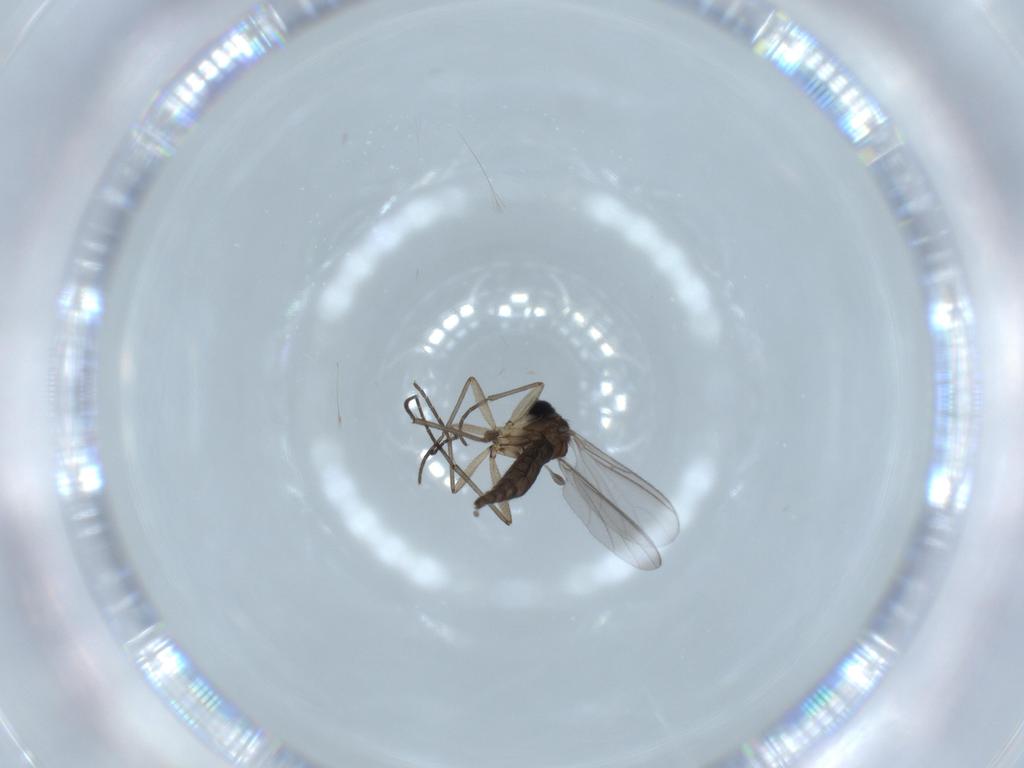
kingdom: Animalia
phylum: Arthropoda
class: Insecta
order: Diptera
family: Sciaridae
